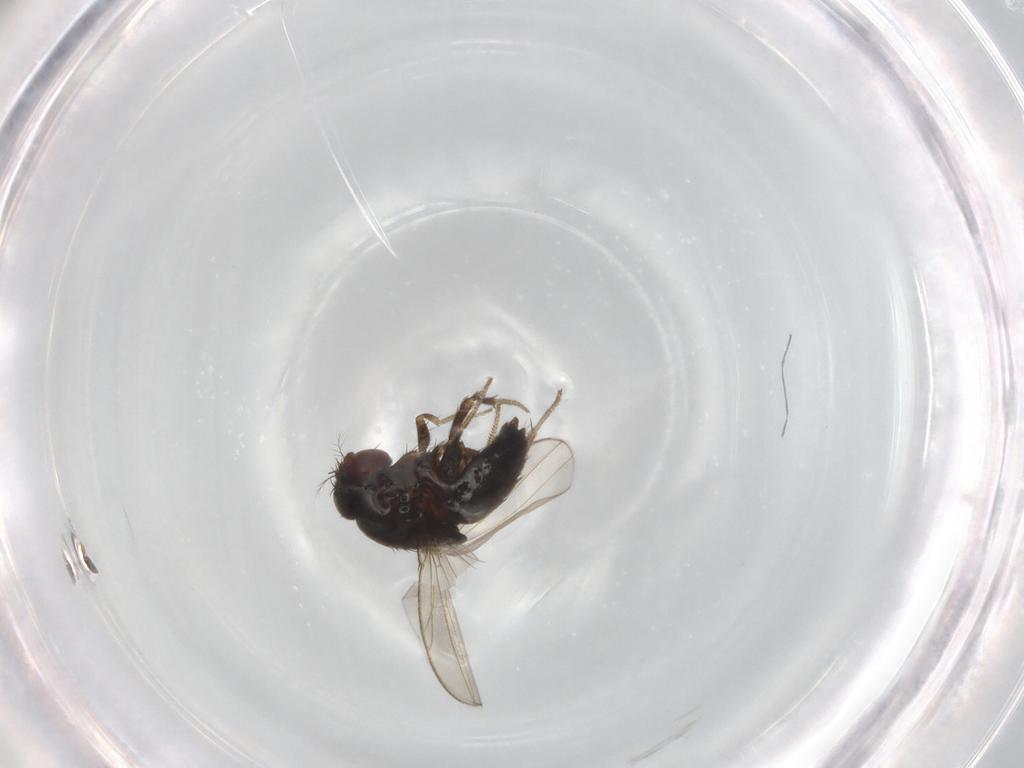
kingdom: Animalia
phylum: Arthropoda
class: Insecta
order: Diptera
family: Drosophilidae
